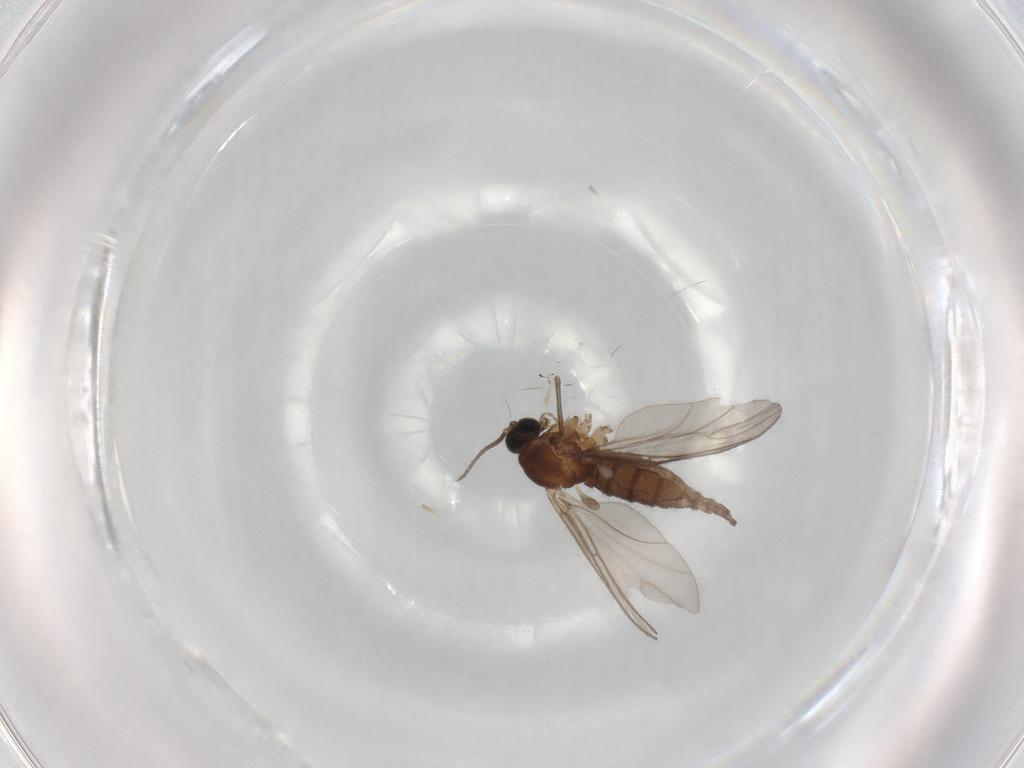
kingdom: Animalia
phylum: Arthropoda
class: Insecta
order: Diptera
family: Sciaridae
